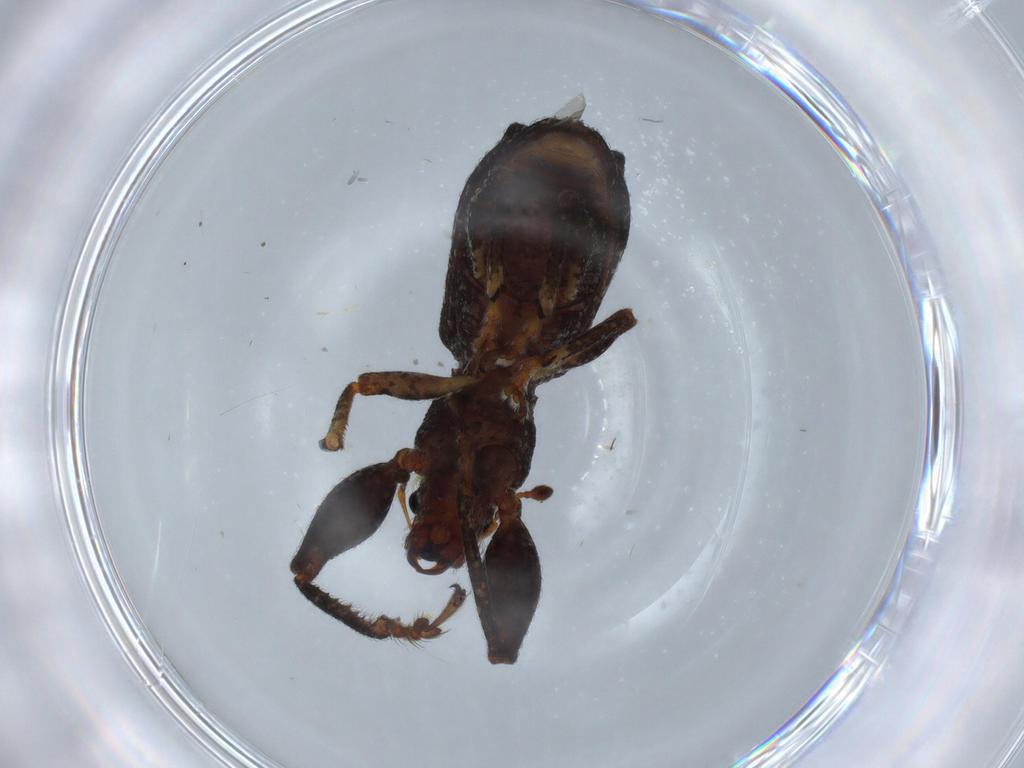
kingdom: Animalia
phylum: Arthropoda
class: Insecta
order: Coleoptera
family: Curculionidae
